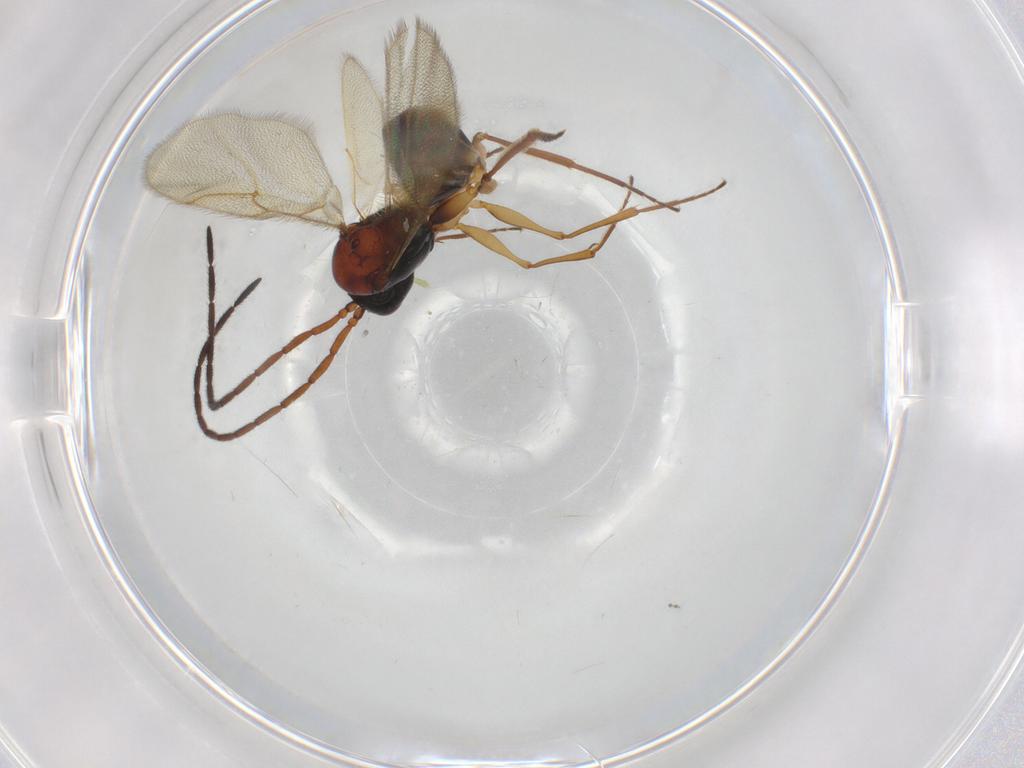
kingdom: Animalia
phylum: Arthropoda
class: Insecta
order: Hymenoptera
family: Figitidae
